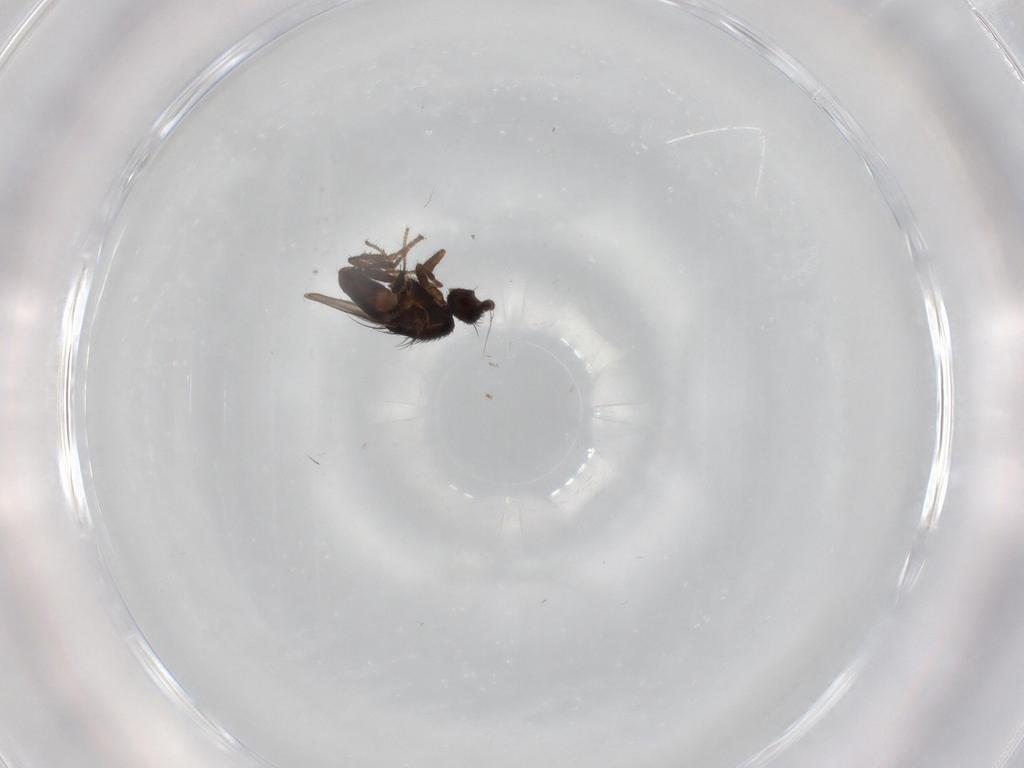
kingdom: Animalia
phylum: Arthropoda
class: Insecta
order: Diptera
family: Sphaeroceridae
